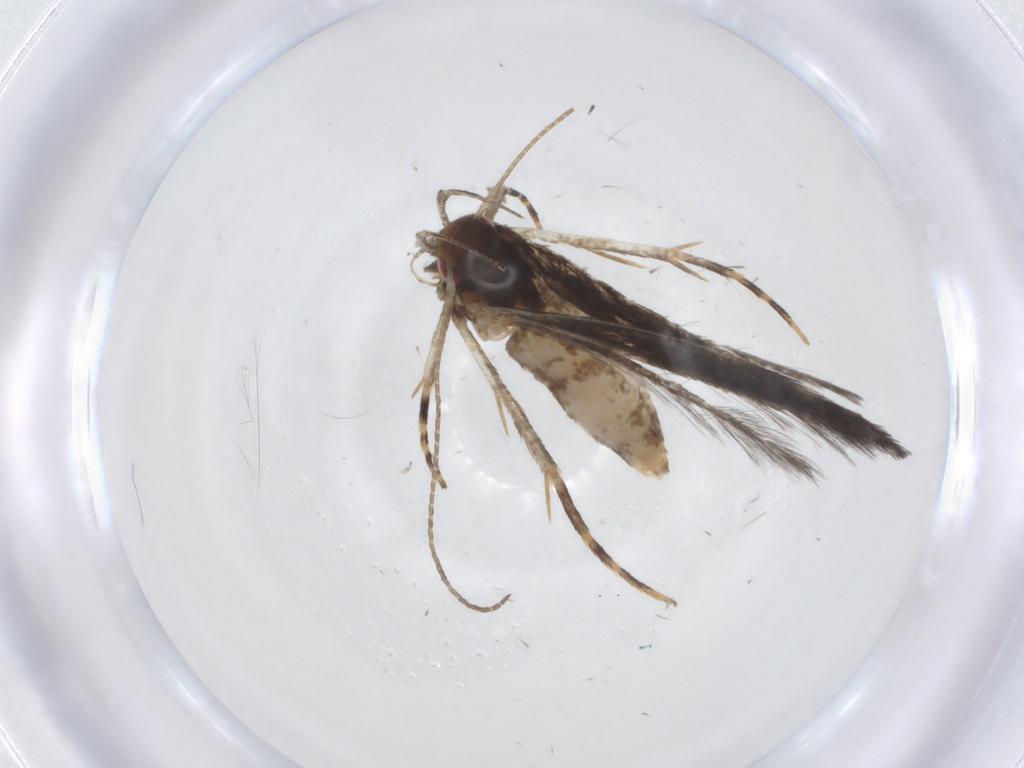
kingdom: Animalia
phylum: Arthropoda
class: Insecta
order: Lepidoptera
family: Cosmopterigidae
